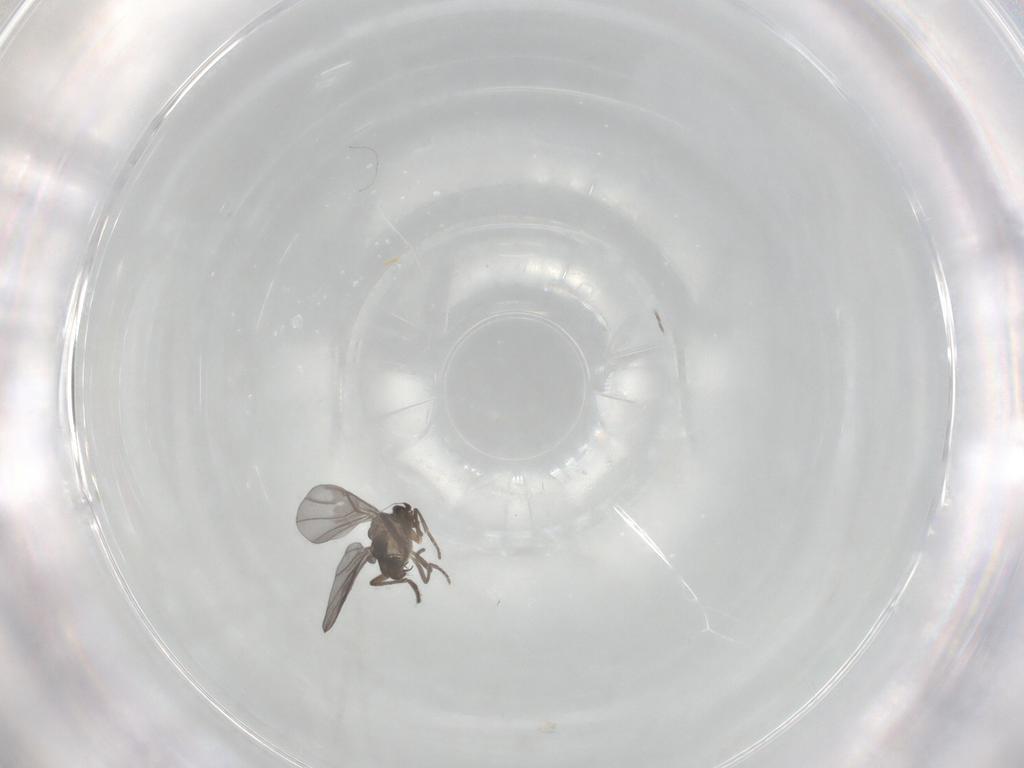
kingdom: Animalia
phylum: Arthropoda
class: Insecta
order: Diptera
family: Phoridae
